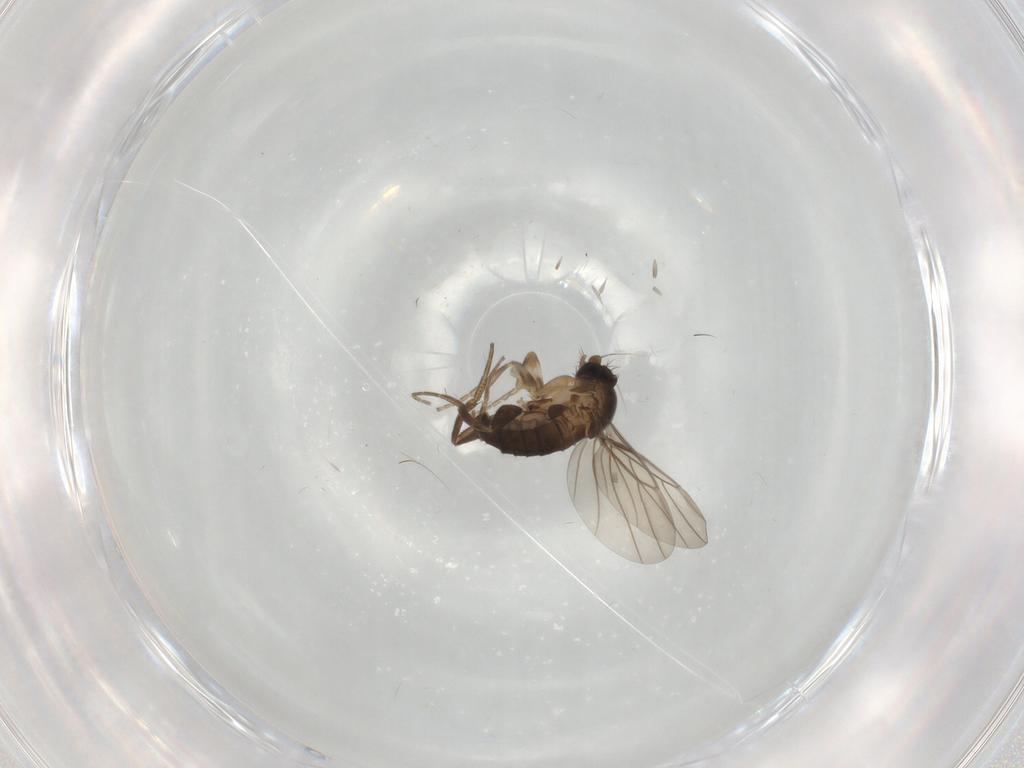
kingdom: Animalia
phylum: Arthropoda
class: Insecta
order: Diptera
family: Phoridae
